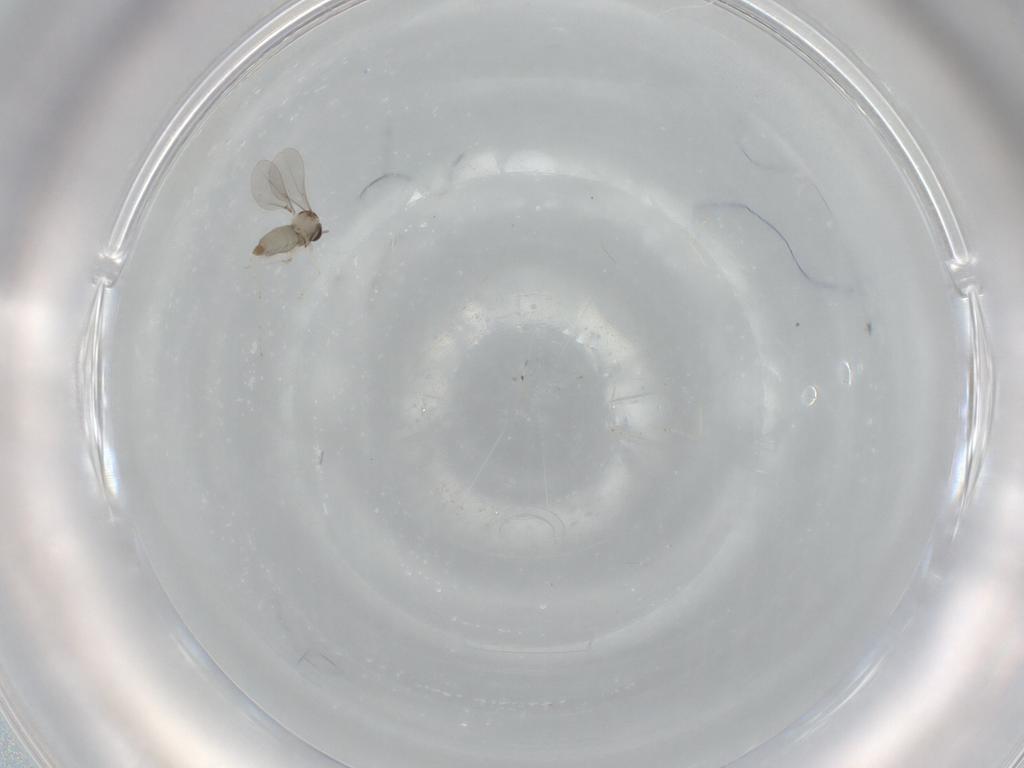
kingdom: Animalia
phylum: Arthropoda
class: Insecta
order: Diptera
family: Cecidomyiidae
